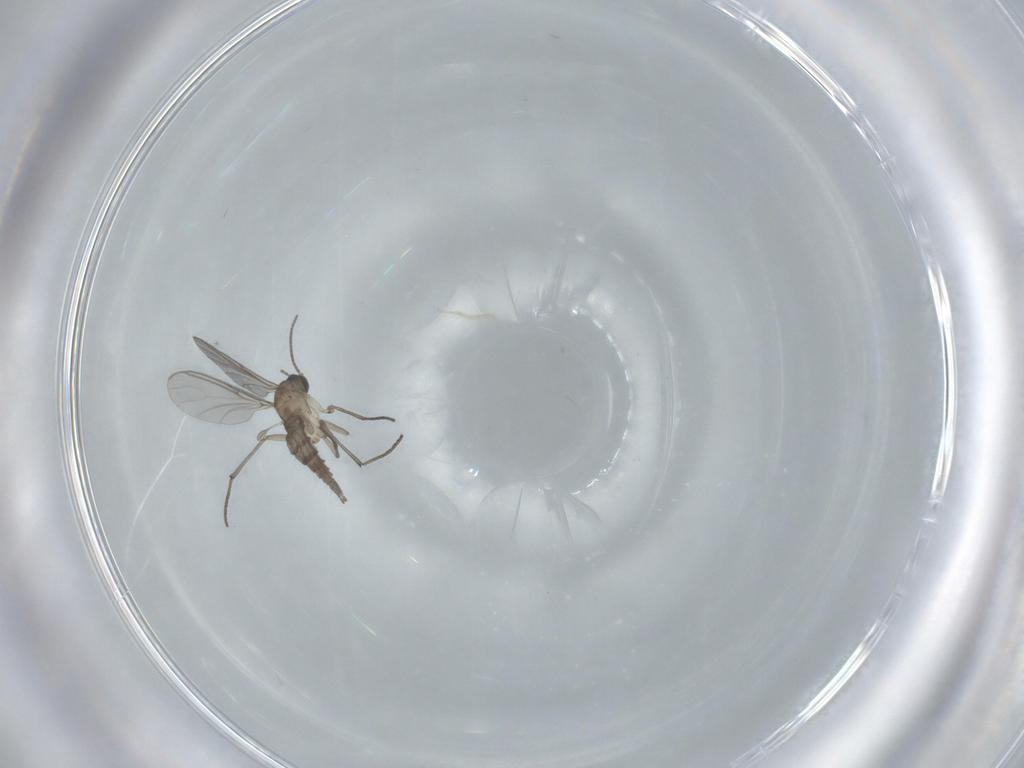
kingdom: Animalia
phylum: Arthropoda
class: Insecta
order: Diptera
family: Sciaridae
